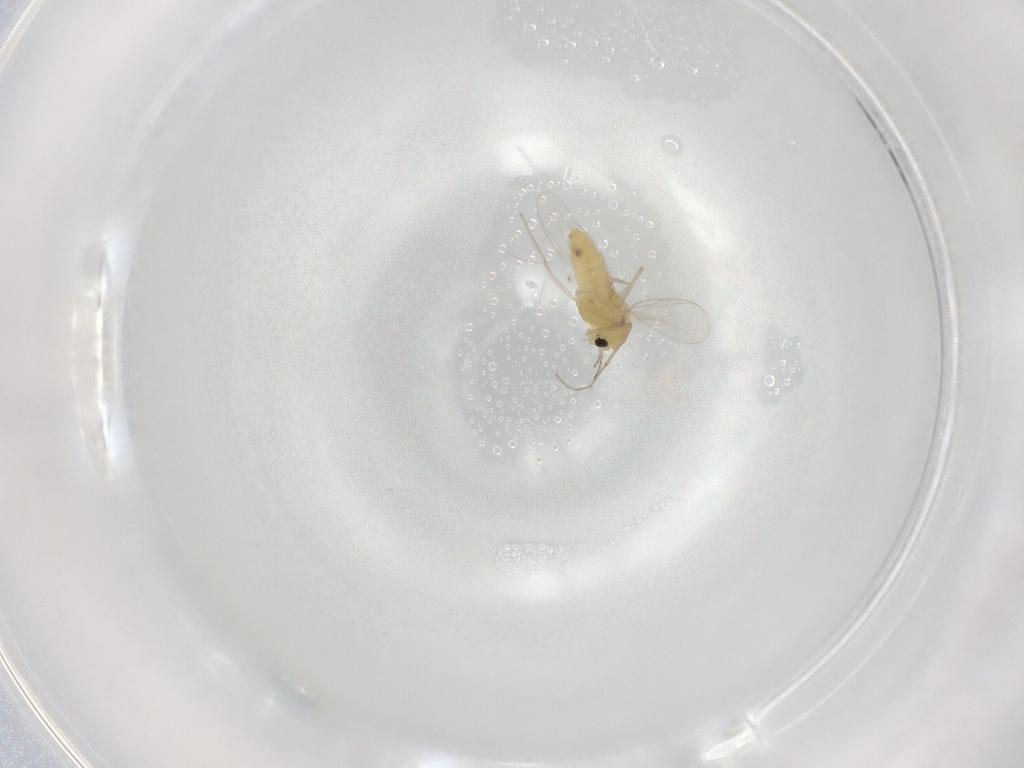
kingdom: Animalia
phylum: Arthropoda
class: Insecta
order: Diptera
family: Chironomidae
